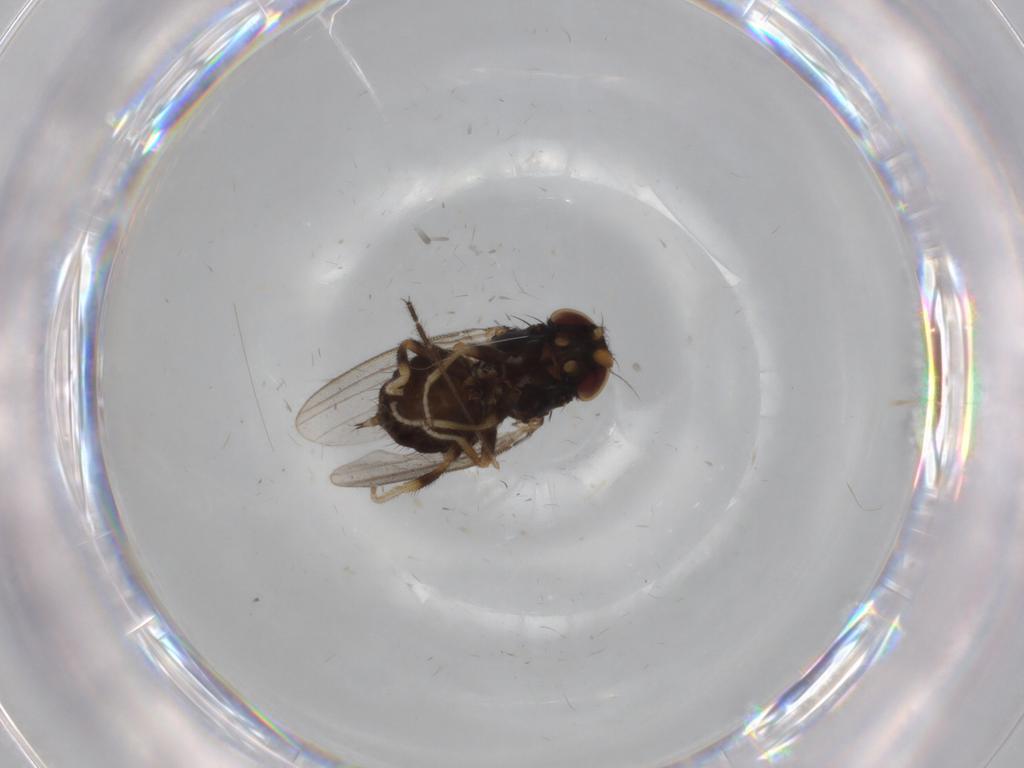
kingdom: Animalia
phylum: Arthropoda
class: Insecta
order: Diptera
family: Milichiidae
